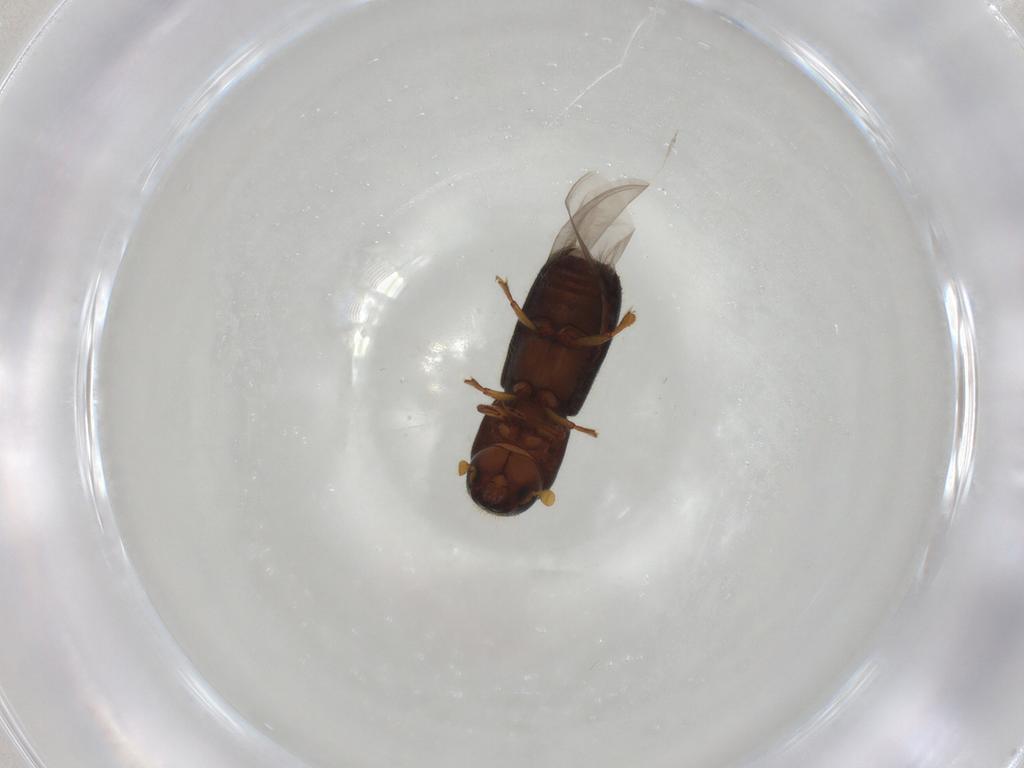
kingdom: Animalia
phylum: Arthropoda
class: Insecta
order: Coleoptera
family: Curculionidae
